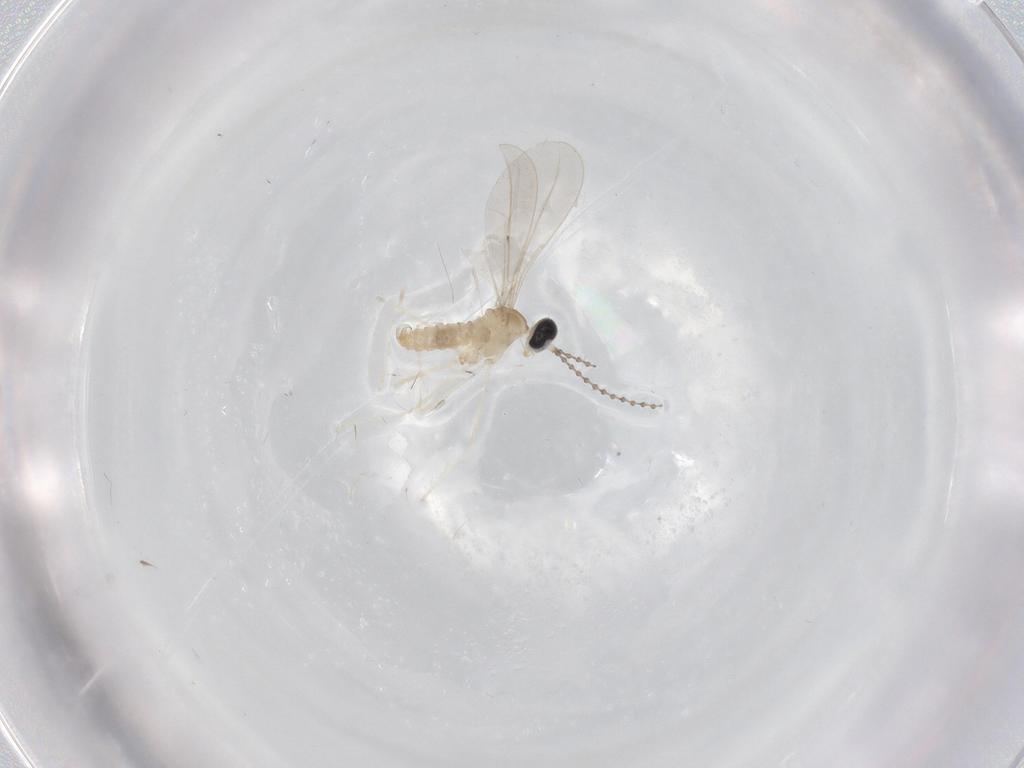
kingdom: Animalia
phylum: Arthropoda
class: Insecta
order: Diptera
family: Cecidomyiidae
